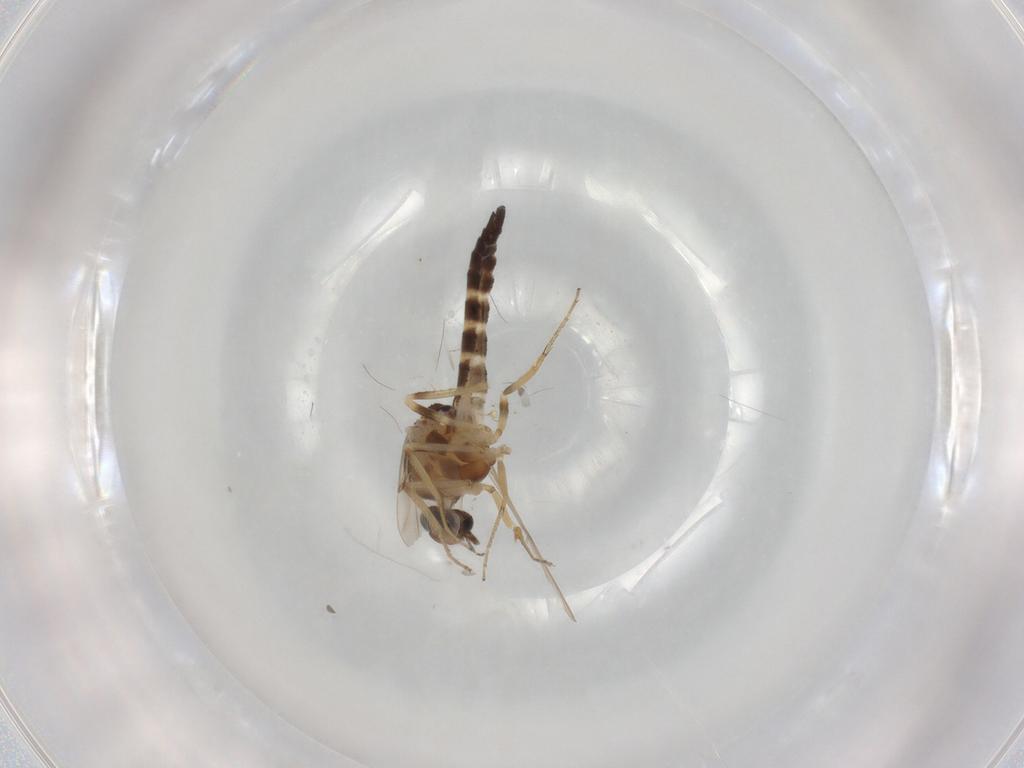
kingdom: Animalia
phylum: Arthropoda
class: Insecta
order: Diptera
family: Ceratopogonidae
